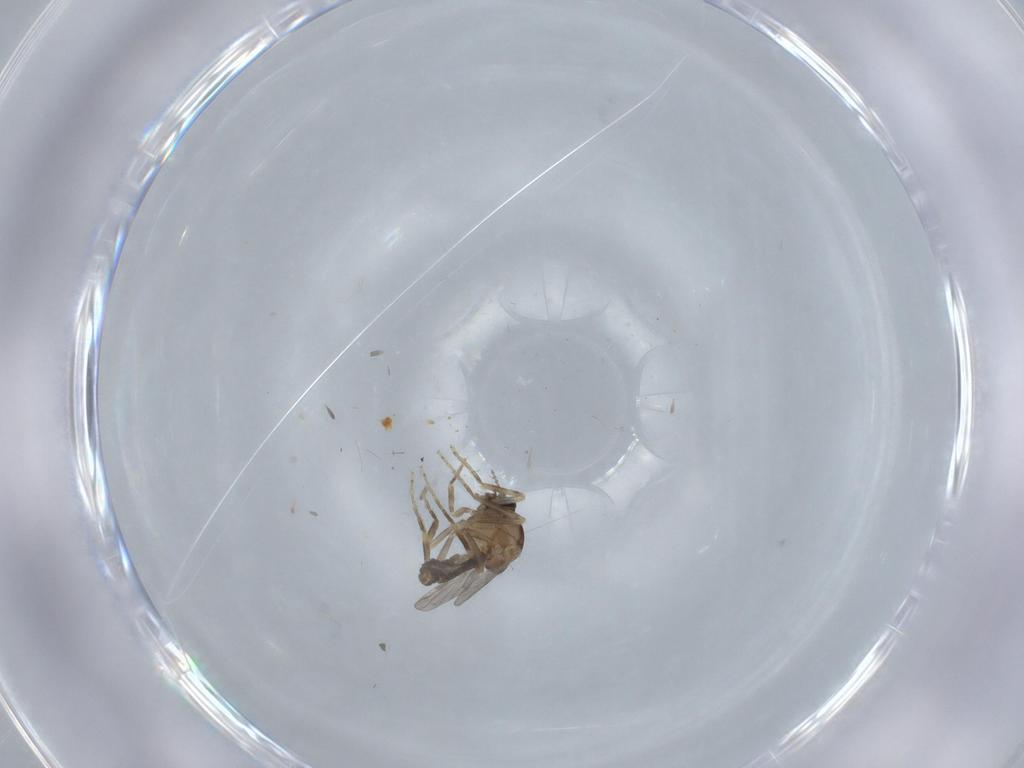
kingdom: Animalia
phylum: Arthropoda
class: Insecta
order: Diptera
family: Ceratopogonidae
